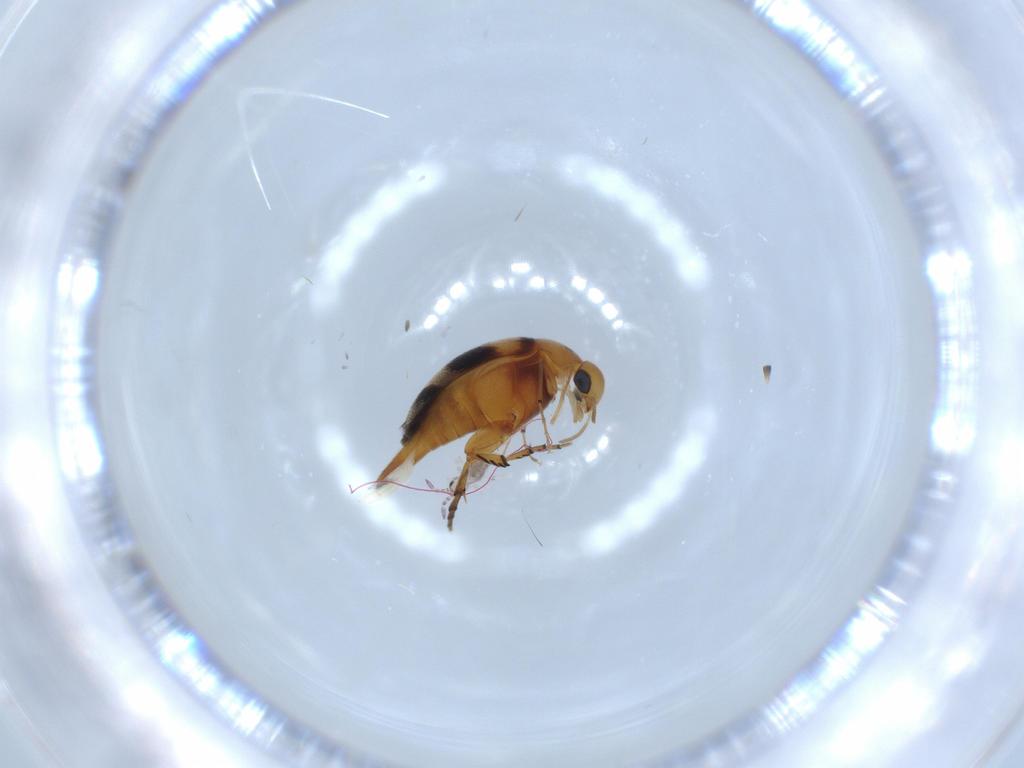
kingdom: Animalia
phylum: Arthropoda
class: Insecta
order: Coleoptera
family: Mordellidae
